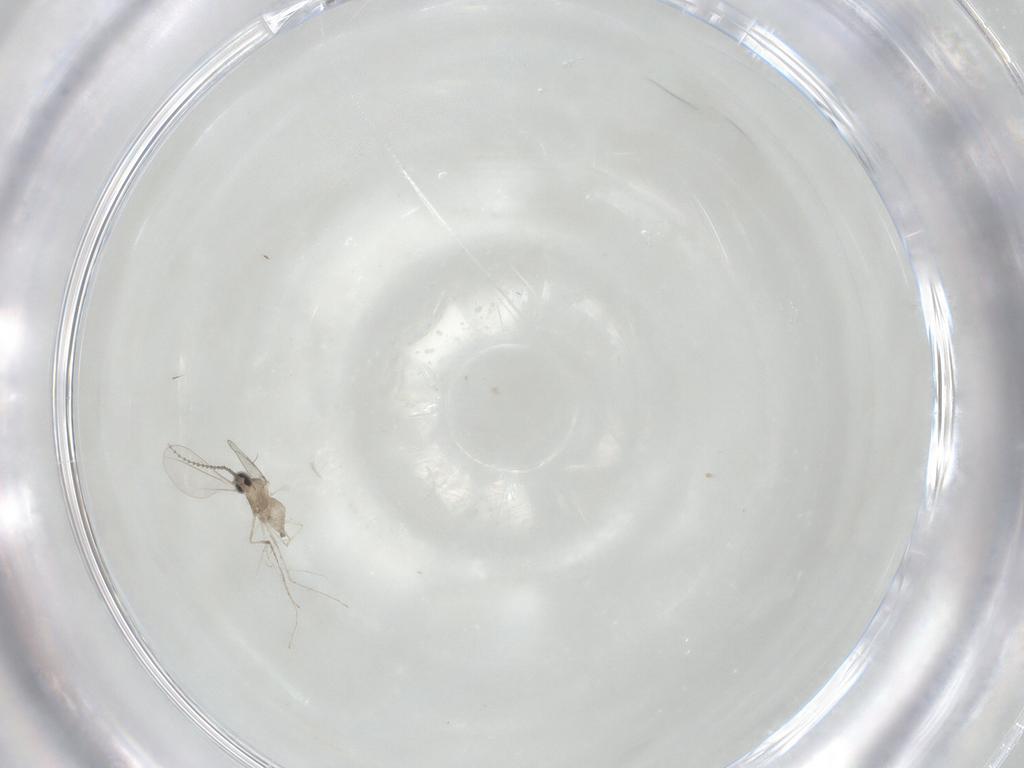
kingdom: Animalia
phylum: Arthropoda
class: Insecta
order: Diptera
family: Cecidomyiidae
